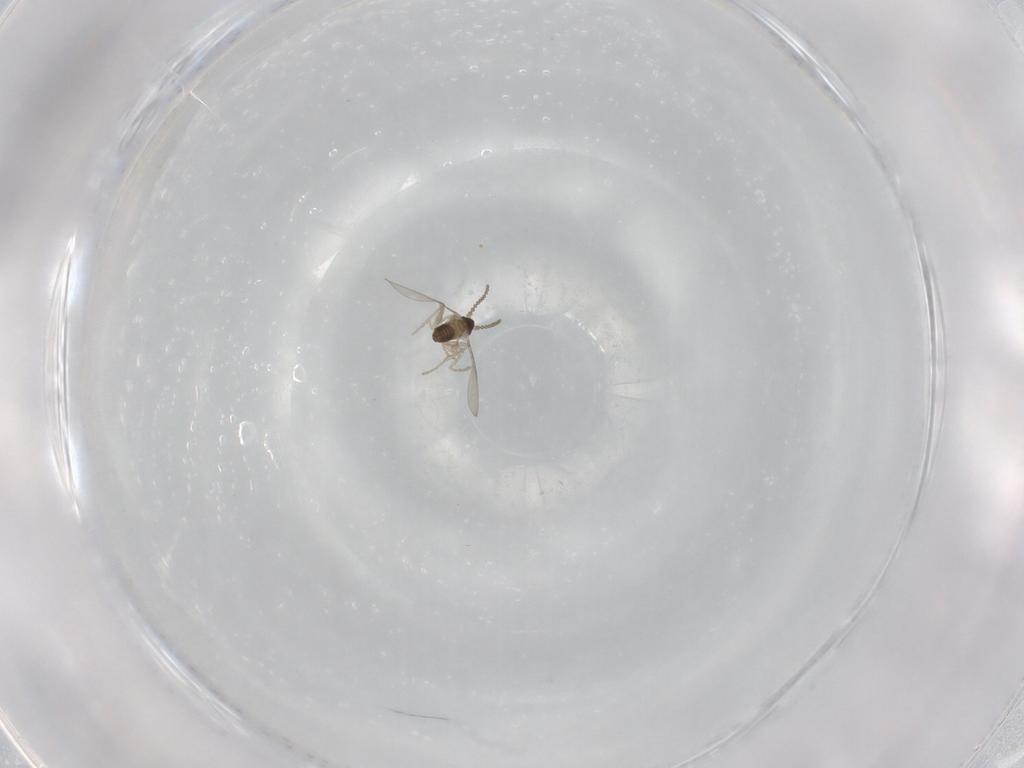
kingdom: Animalia
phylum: Arthropoda
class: Insecta
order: Diptera
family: Cecidomyiidae
